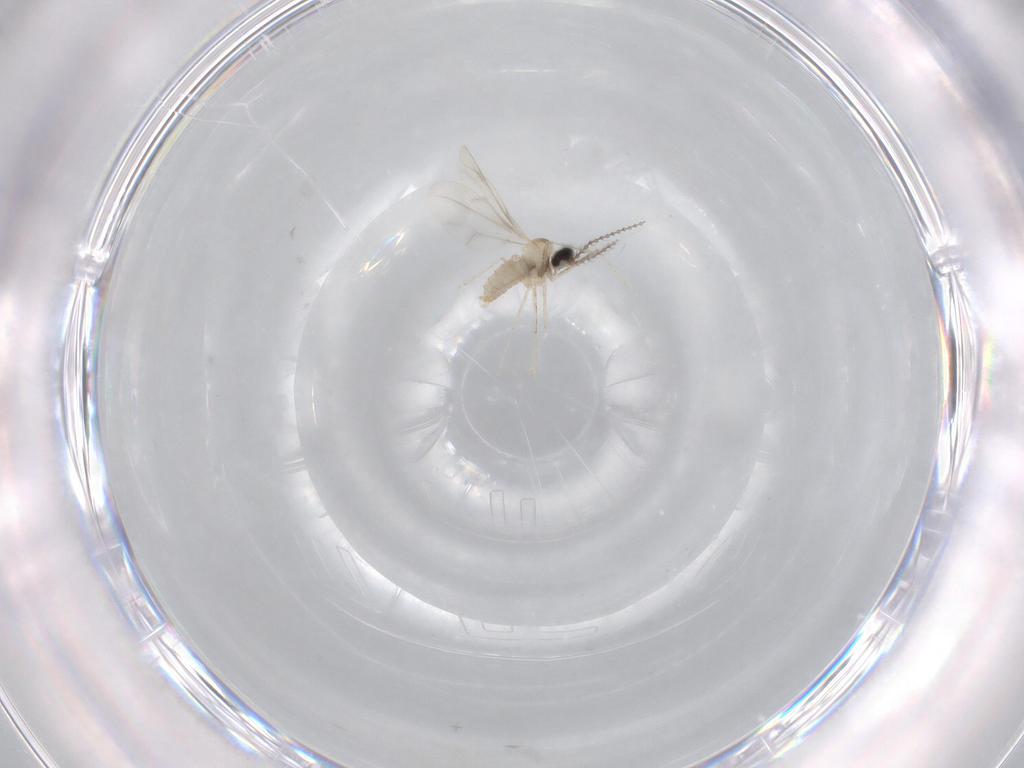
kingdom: Animalia
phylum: Arthropoda
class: Insecta
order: Diptera
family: Cecidomyiidae
